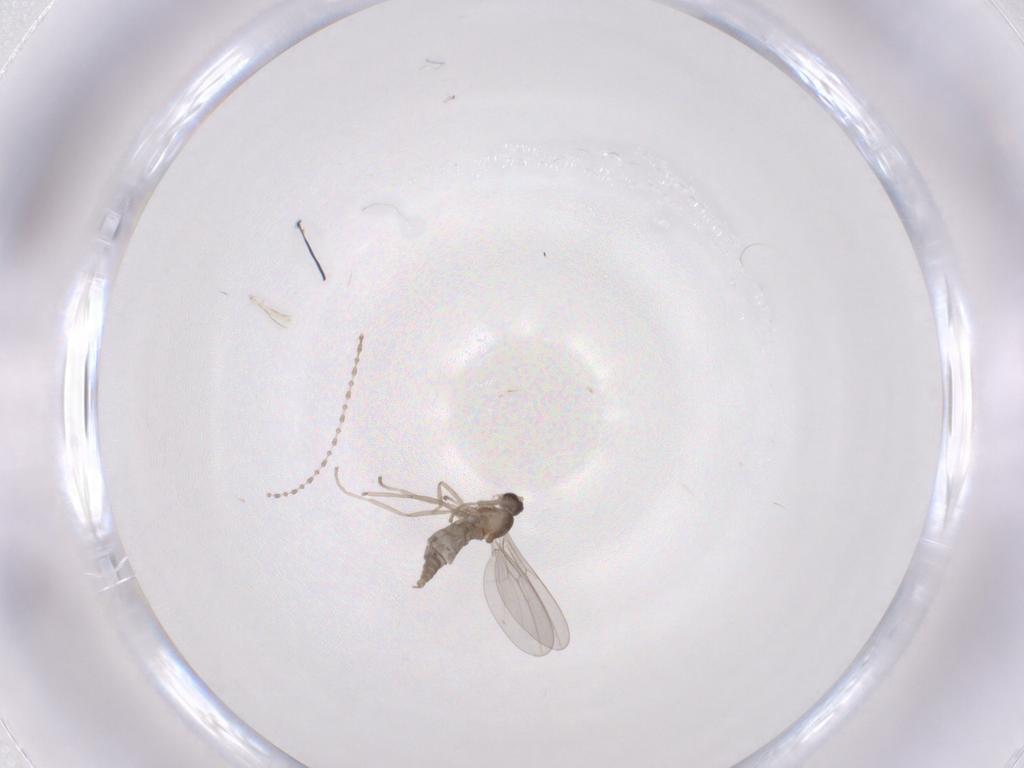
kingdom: Animalia
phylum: Arthropoda
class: Insecta
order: Diptera
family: Cecidomyiidae
